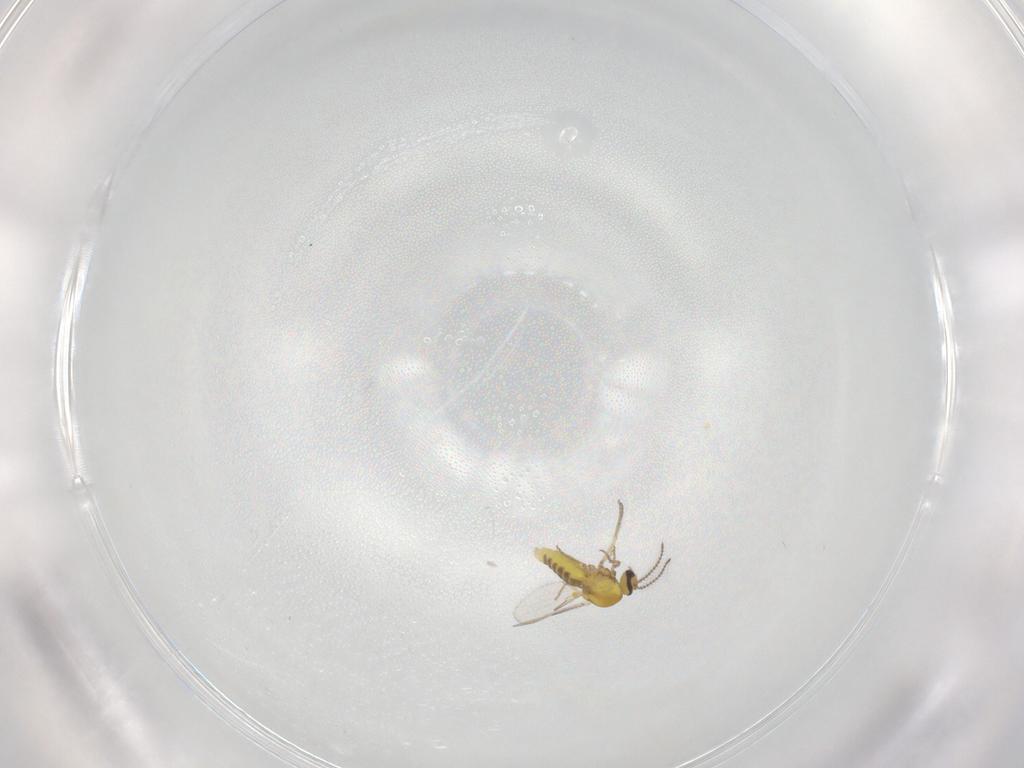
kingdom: Animalia
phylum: Arthropoda
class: Insecta
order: Diptera
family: Ceratopogonidae
